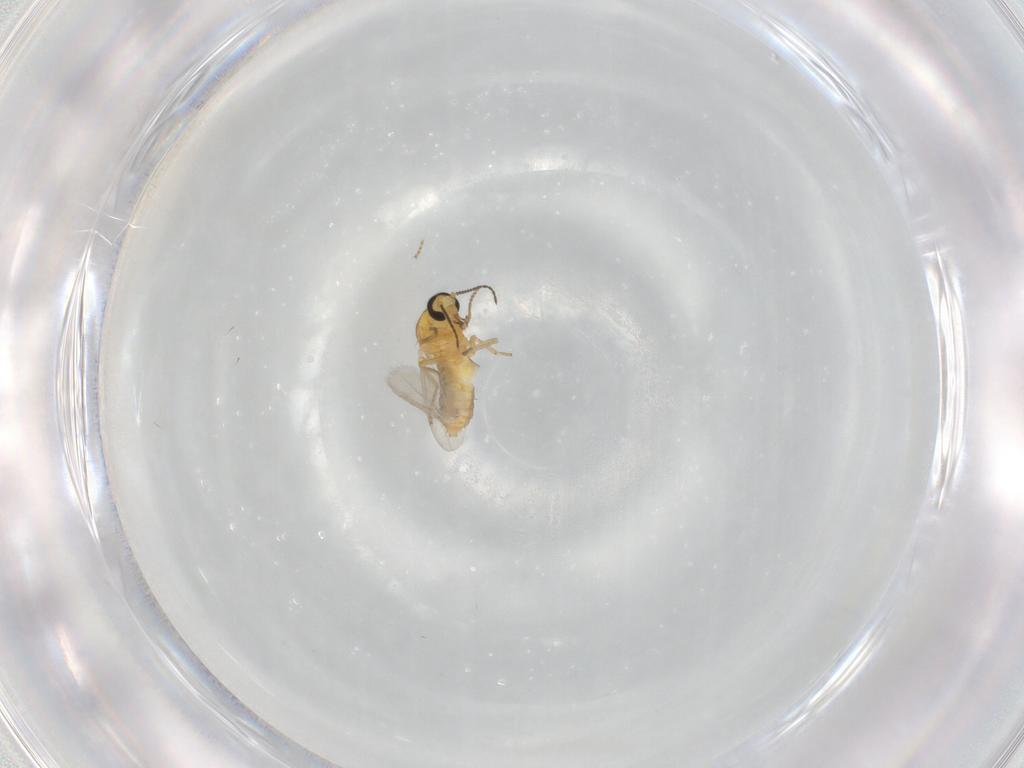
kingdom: Animalia
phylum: Arthropoda
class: Insecta
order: Diptera
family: Ceratopogonidae
